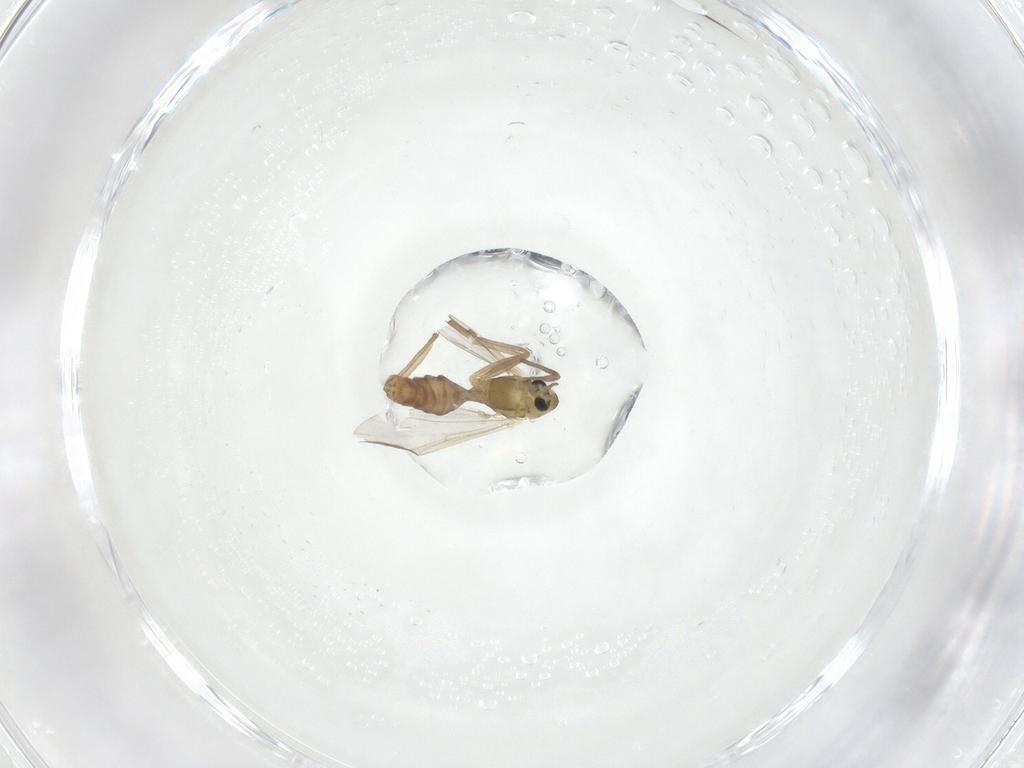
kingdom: Animalia
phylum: Arthropoda
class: Insecta
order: Diptera
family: Chironomidae
